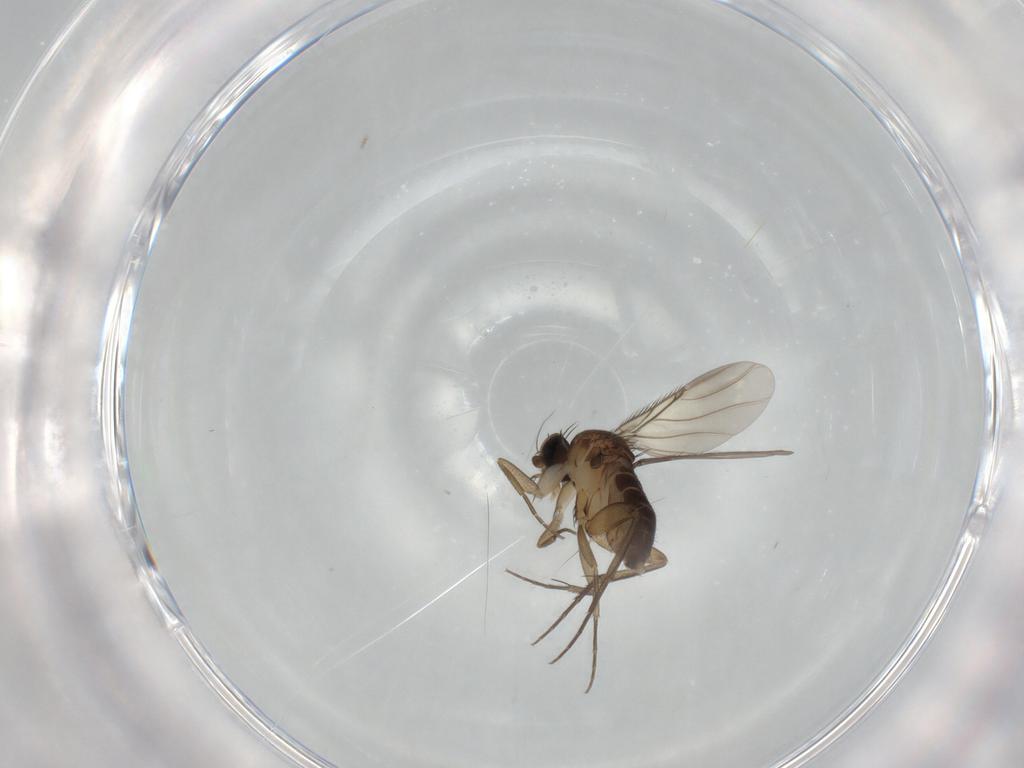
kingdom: Animalia
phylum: Arthropoda
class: Insecta
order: Diptera
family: Phoridae
